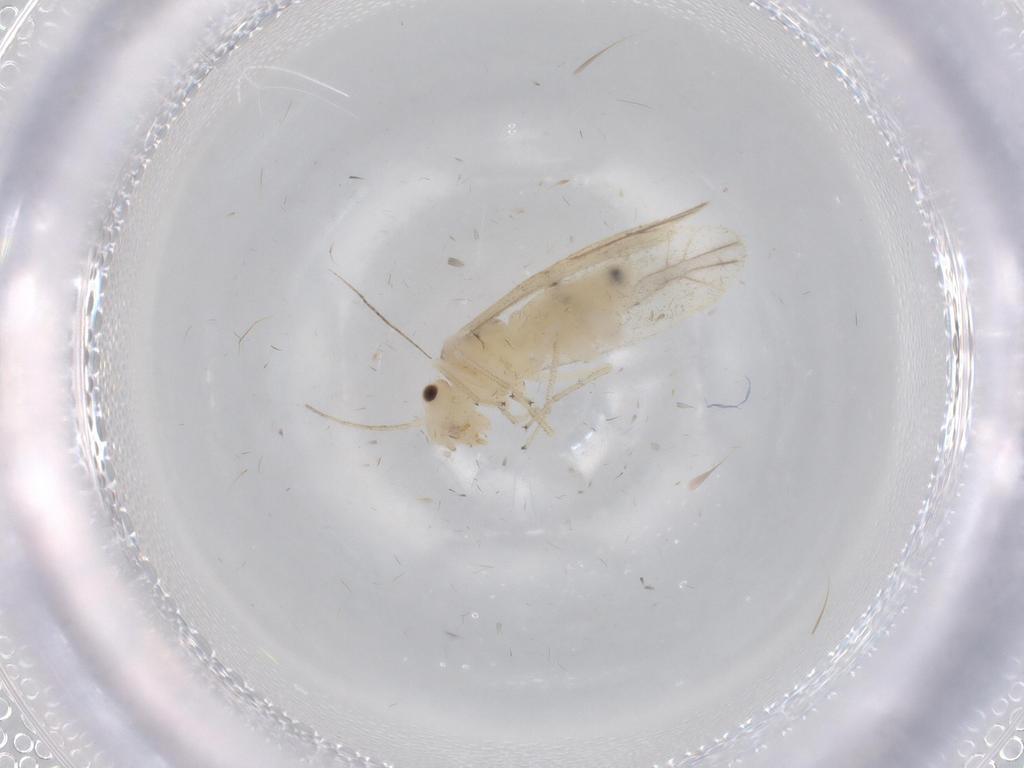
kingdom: Animalia
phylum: Arthropoda
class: Insecta
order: Psocodea
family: Caeciliusidae
